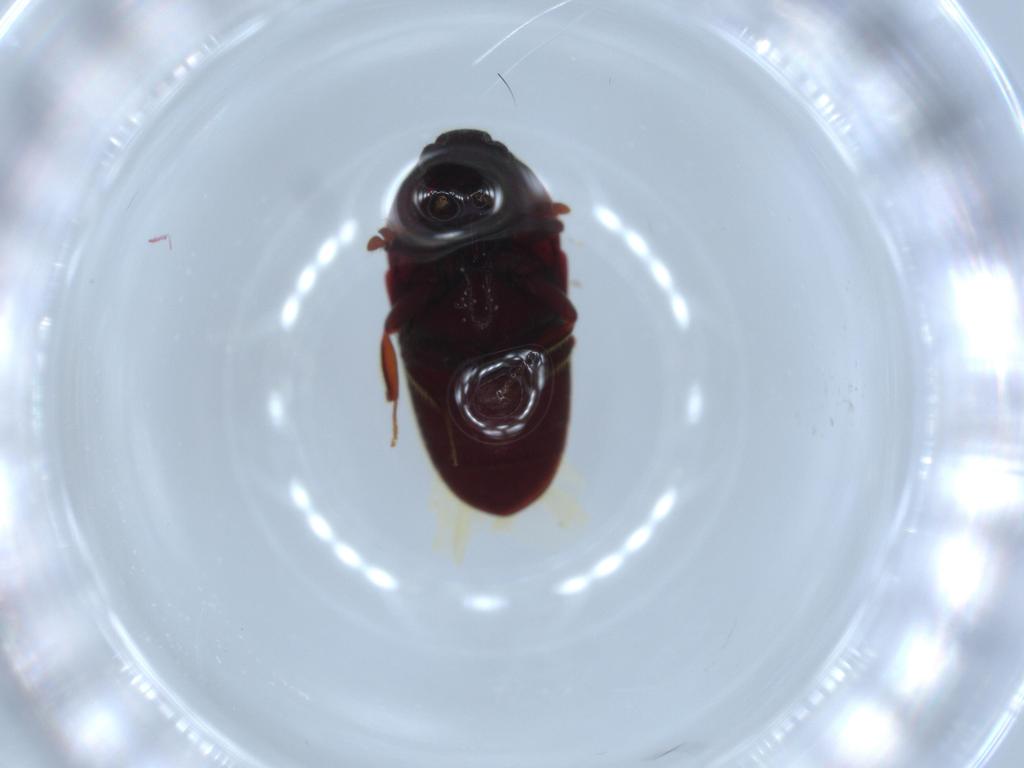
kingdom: Animalia
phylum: Arthropoda
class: Insecta
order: Coleoptera
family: Throscidae
